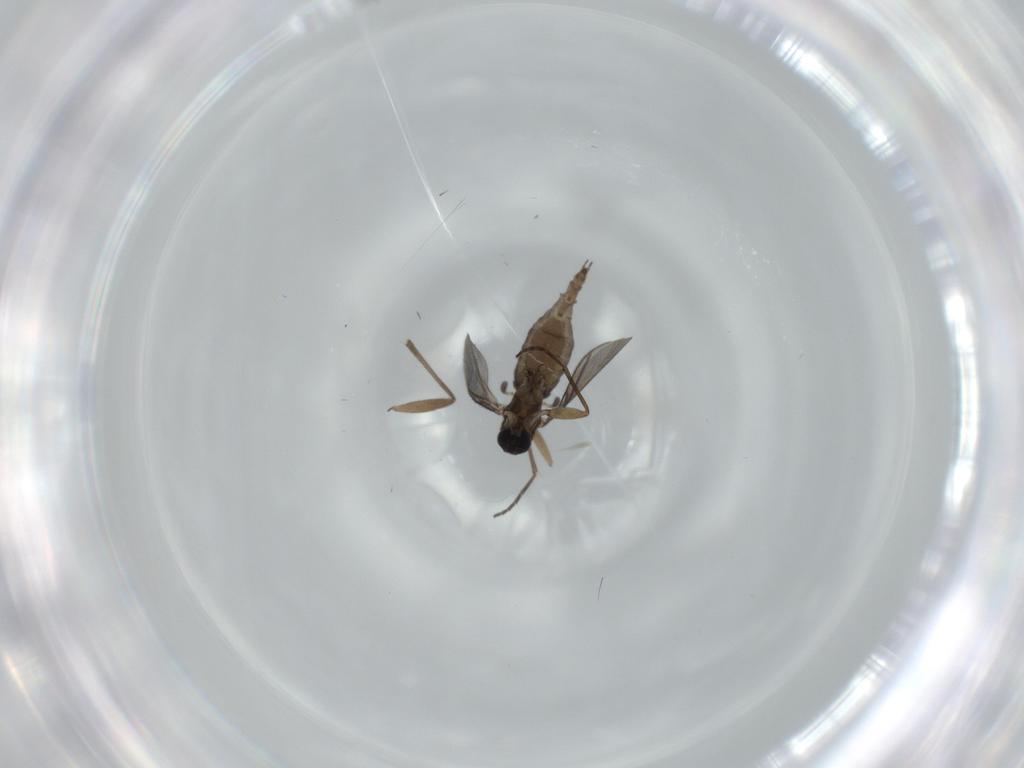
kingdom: Animalia
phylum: Arthropoda
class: Insecta
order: Diptera
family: Sciaridae
